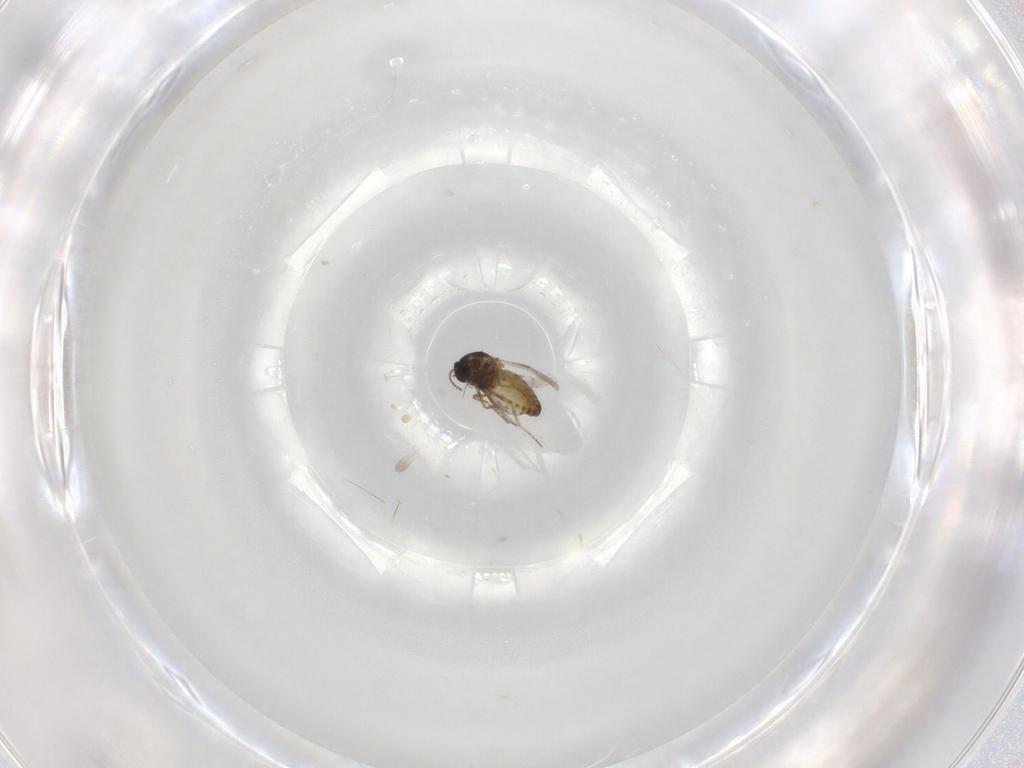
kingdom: Animalia
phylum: Arthropoda
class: Insecta
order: Diptera
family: Ceratopogonidae
